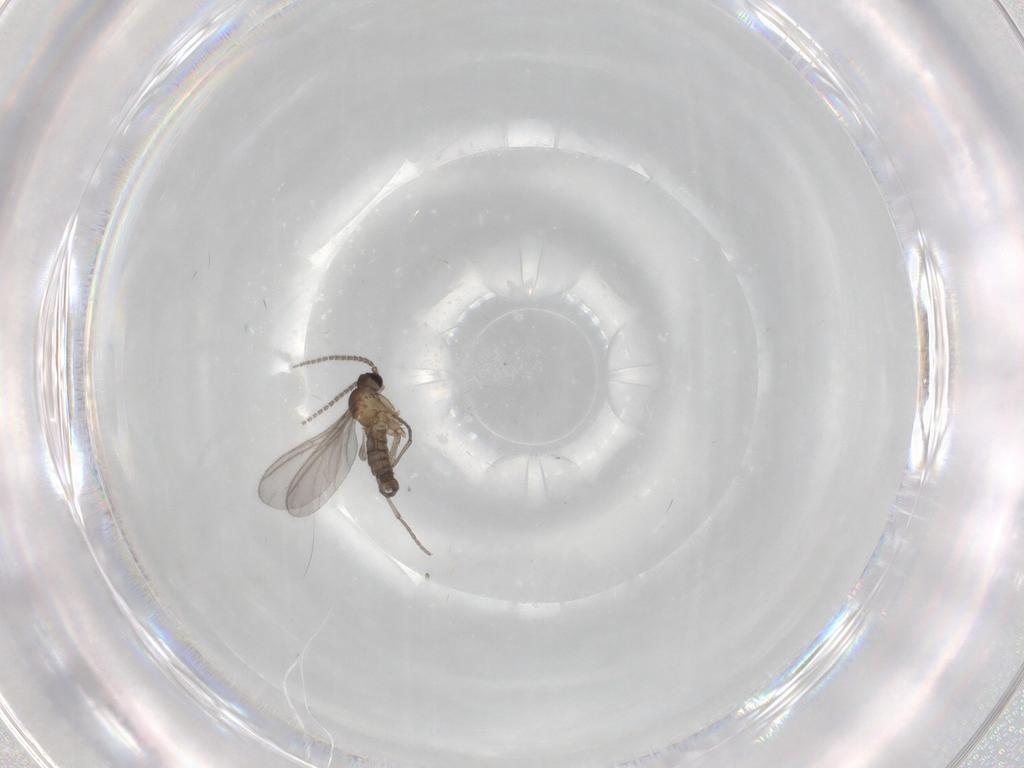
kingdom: Animalia
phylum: Arthropoda
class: Insecta
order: Diptera
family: Sciaridae
